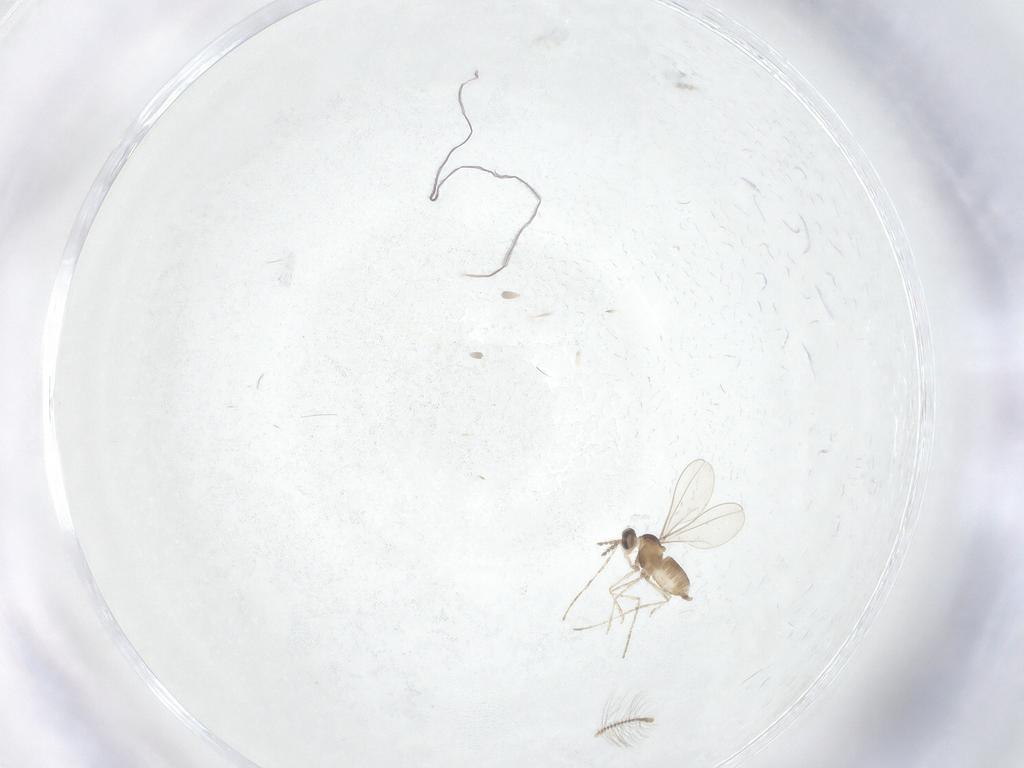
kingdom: Animalia
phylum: Arthropoda
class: Insecta
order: Diptera
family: Chironomidae
